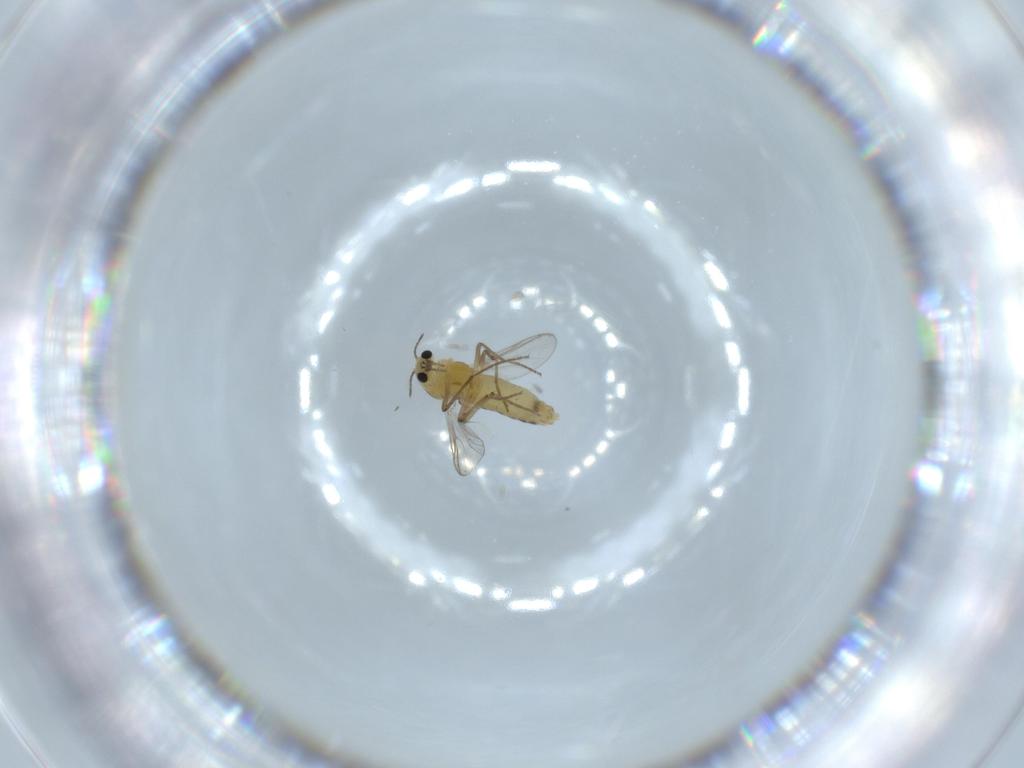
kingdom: Animalia
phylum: Arthropoda
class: Insecta
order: Diptera
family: Chironomidae
